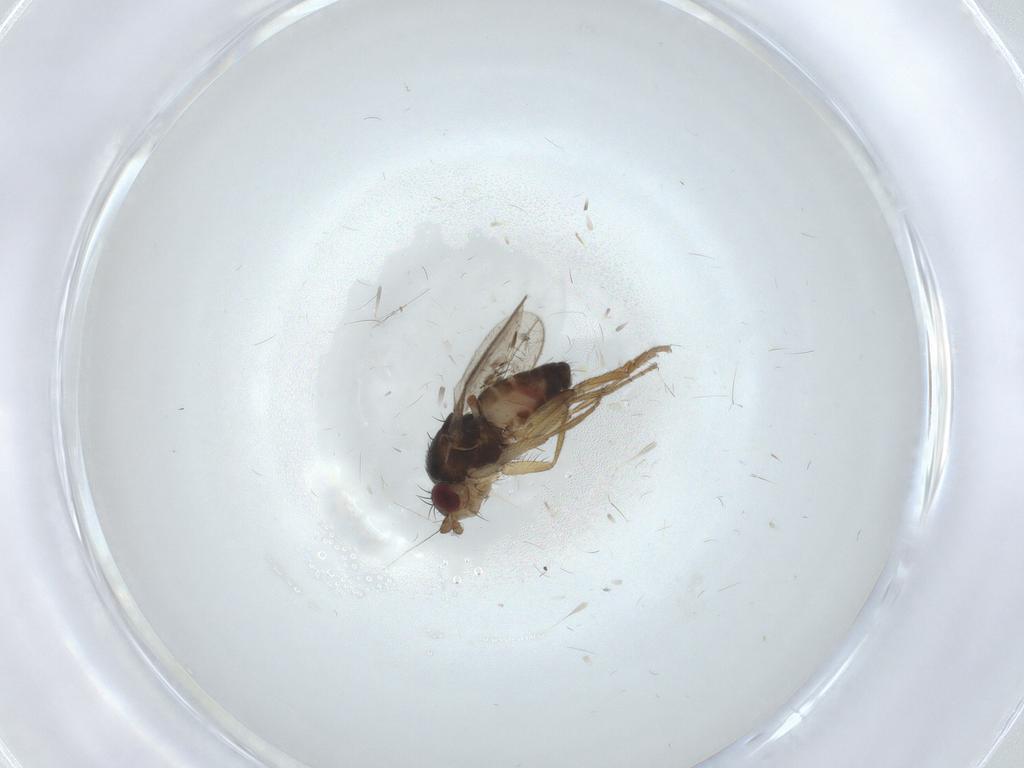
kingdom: Animalia
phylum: Arthropoda
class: Insecta
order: Diptera
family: Sphaeroceridae
